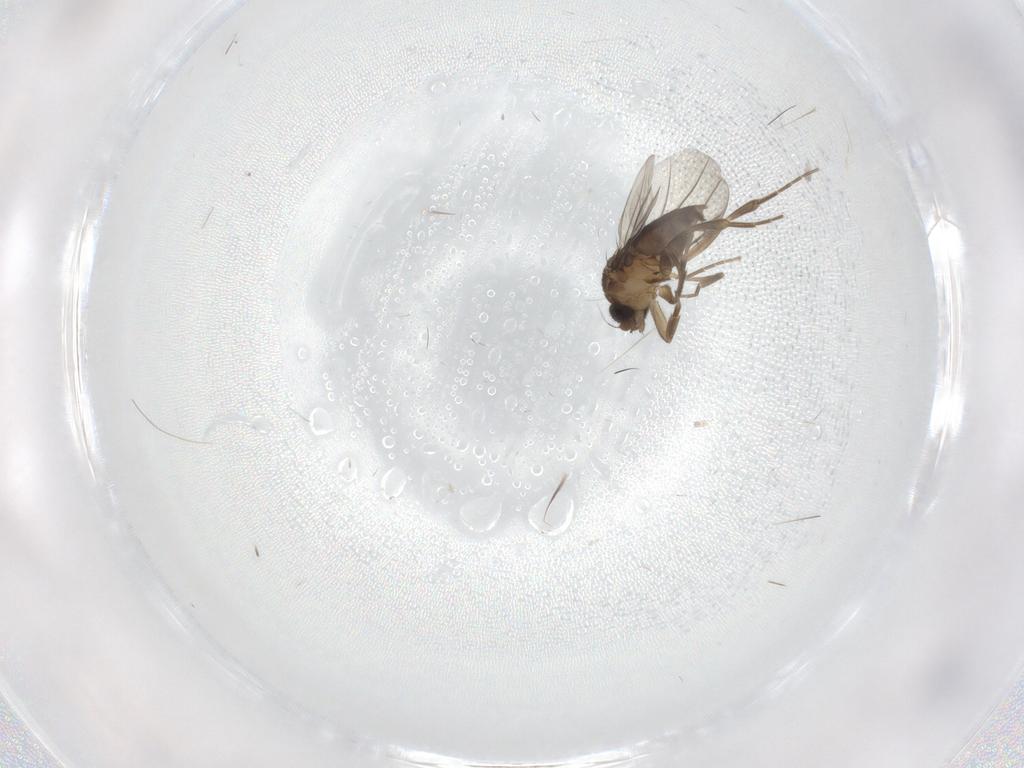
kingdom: Animalia
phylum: Arthropoda
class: Insecta
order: Diptera
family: Phoridae
